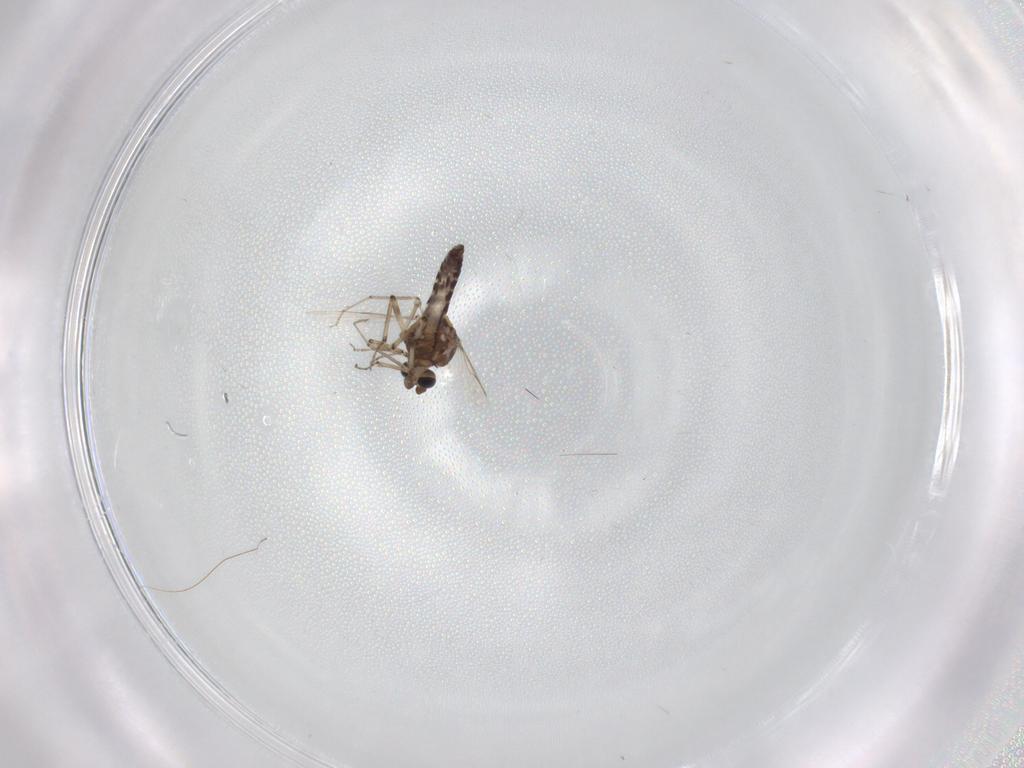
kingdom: Animalia
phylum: Arthropoda
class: Insecta
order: Diptera
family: Ceratopogonidae
